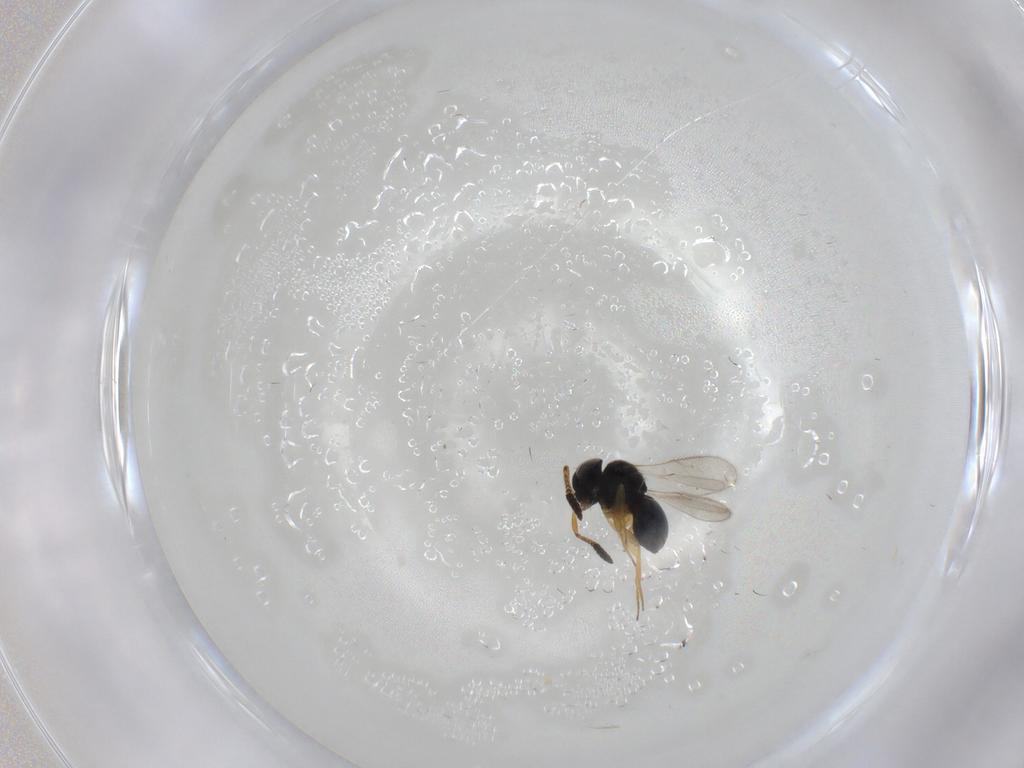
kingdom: Animalia
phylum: Arthropoda
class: Insecta
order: Hymenoptera
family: Scelionidae
